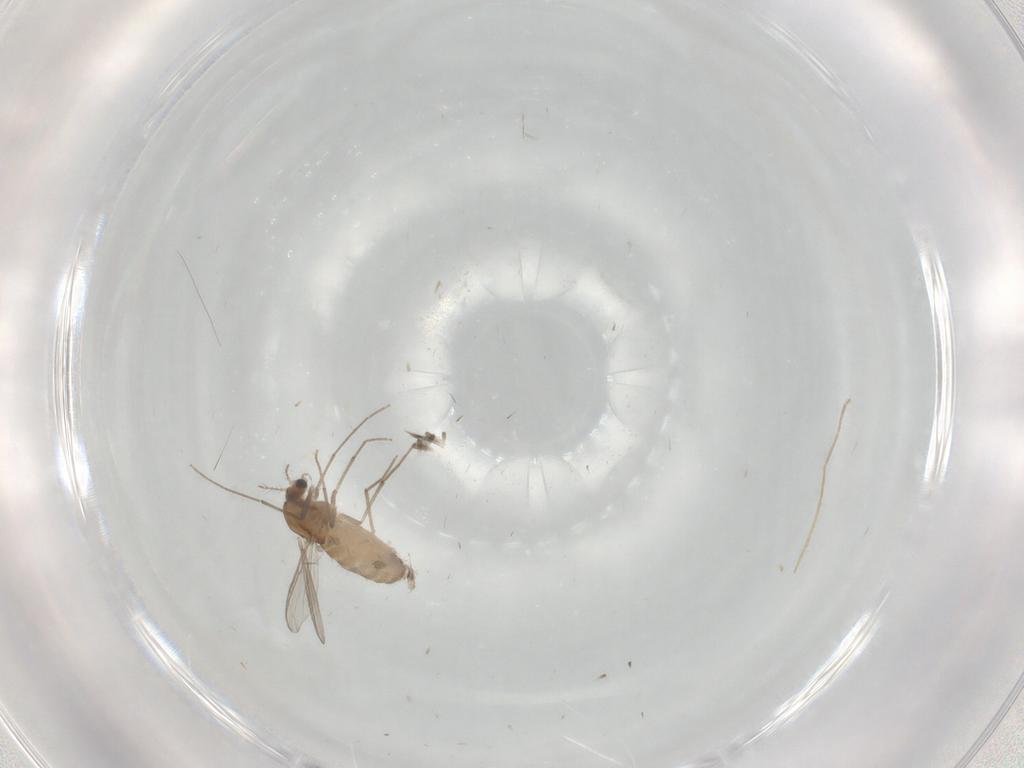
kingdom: Animalia
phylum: Arthropoda
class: Insecta
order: Diptera
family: Chironomidae
